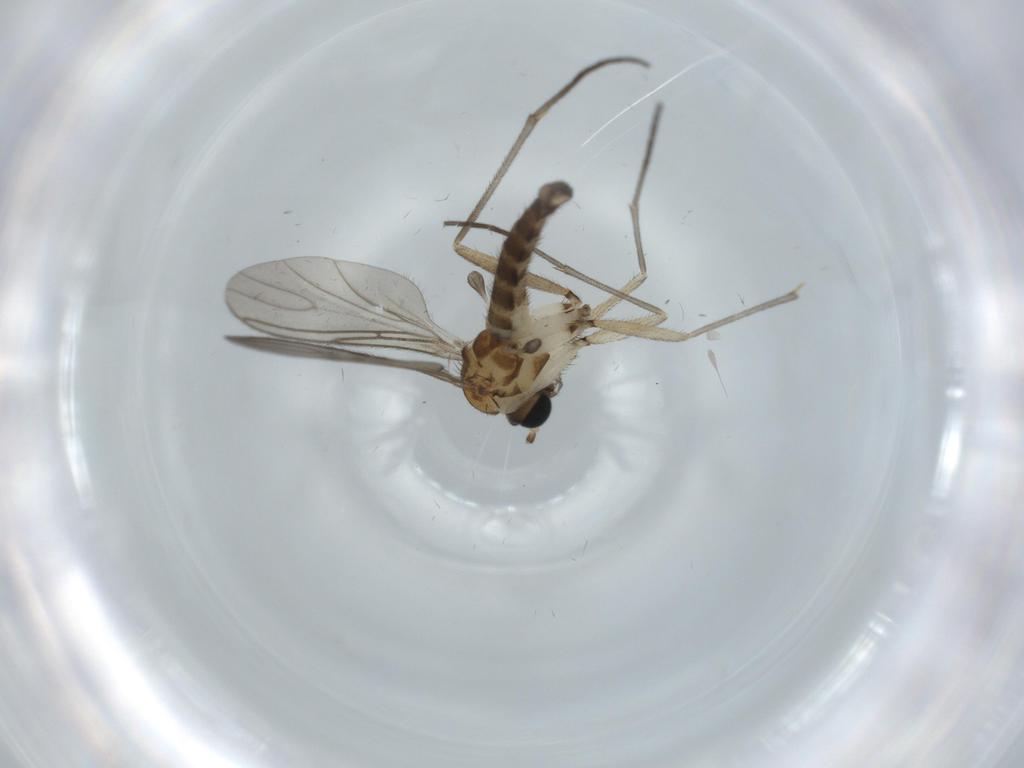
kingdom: Animalia
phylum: Arthropoda
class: Insecta
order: Diptera
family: Sciaridae
